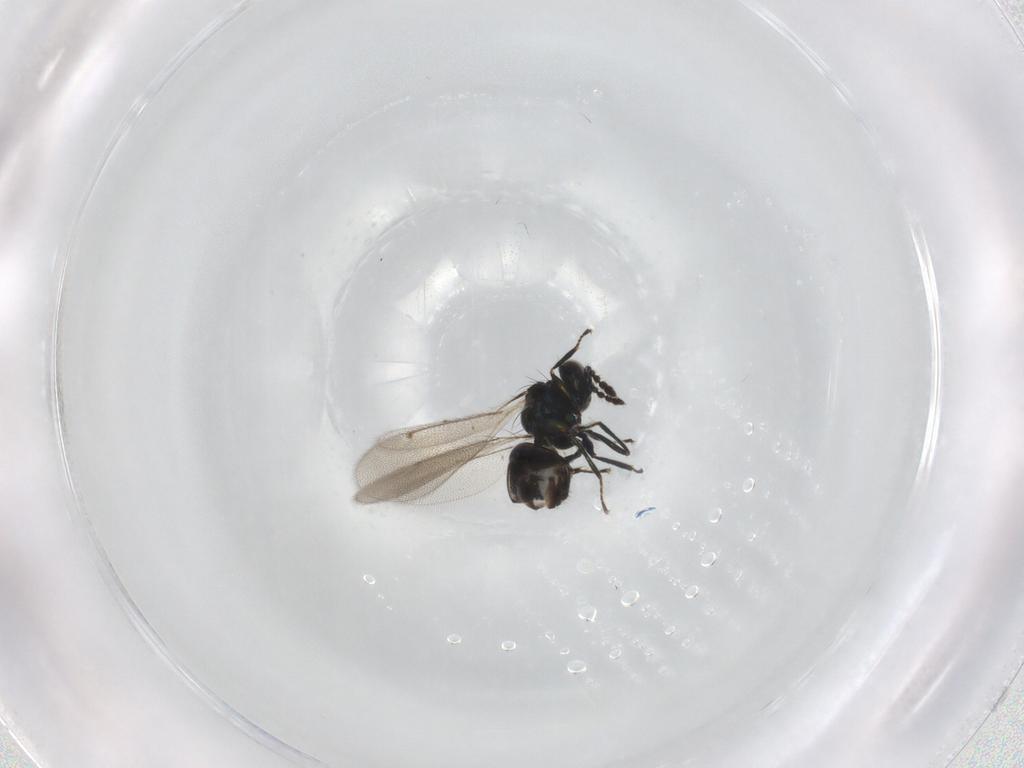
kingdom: Animalia
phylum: Arthropoda
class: Insecta
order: Hymenoptera
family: Eulophidae
